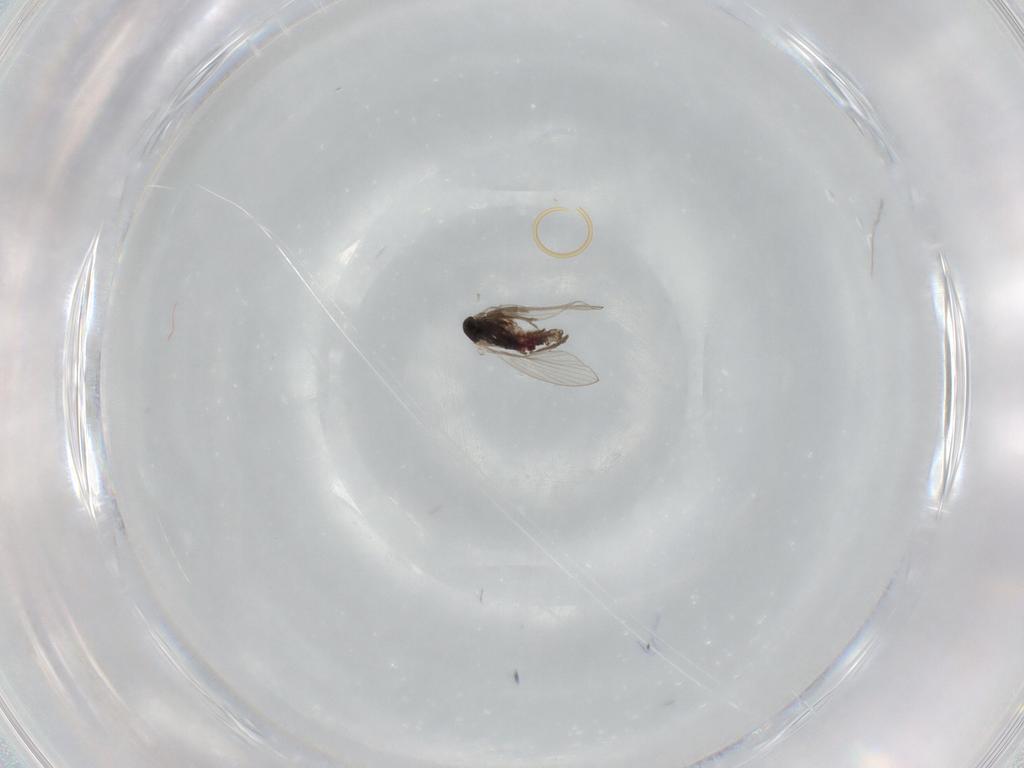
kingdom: Animalia
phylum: Arthropoda
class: Insecta
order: Diptera
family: Psychodidae
